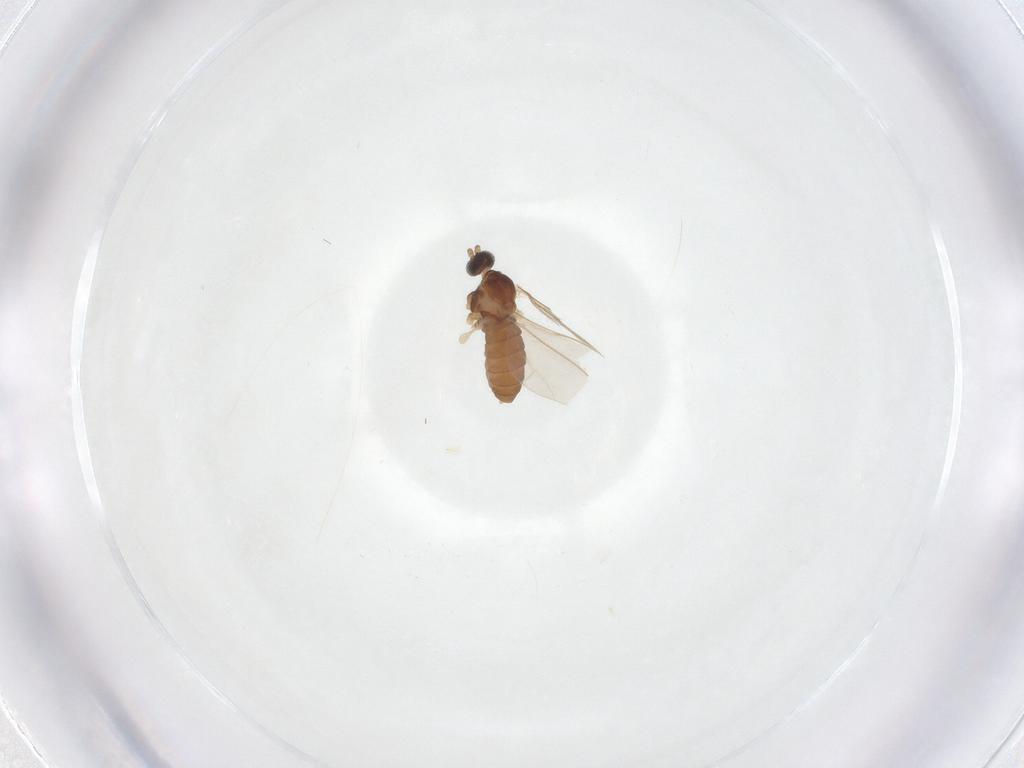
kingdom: Animalia
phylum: Arthropoda
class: Insecta
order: Diptera
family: Cecidomyiidae
